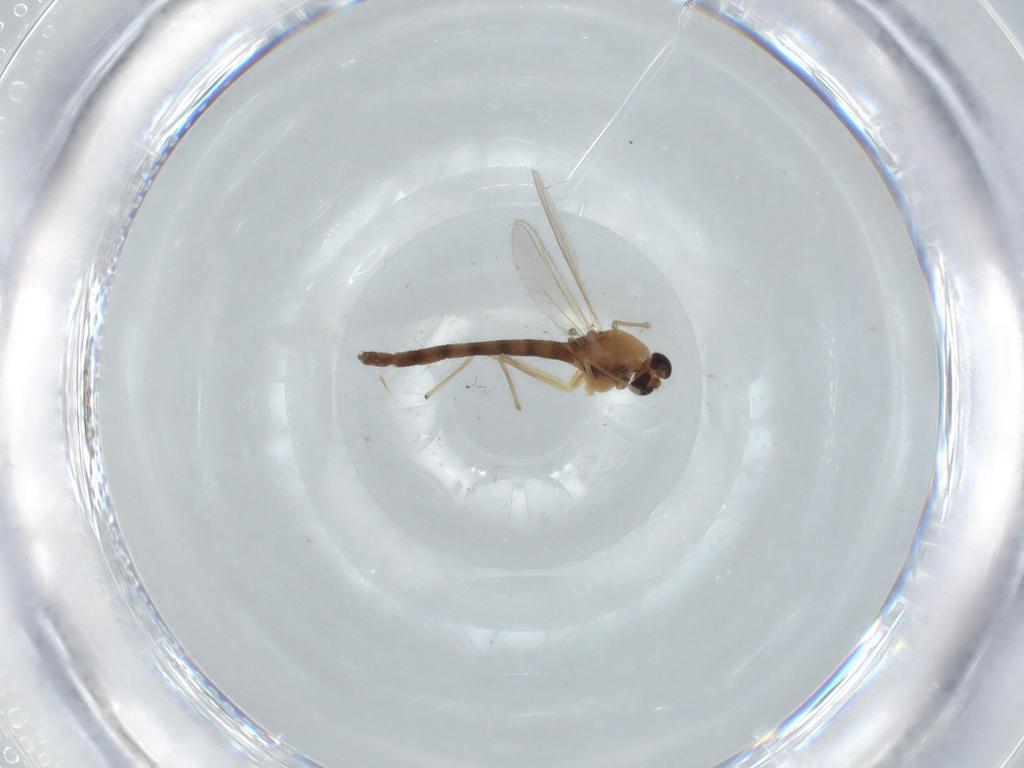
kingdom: Animalia
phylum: Arthropoda
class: Insecta
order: Diptera
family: Chironomidae
